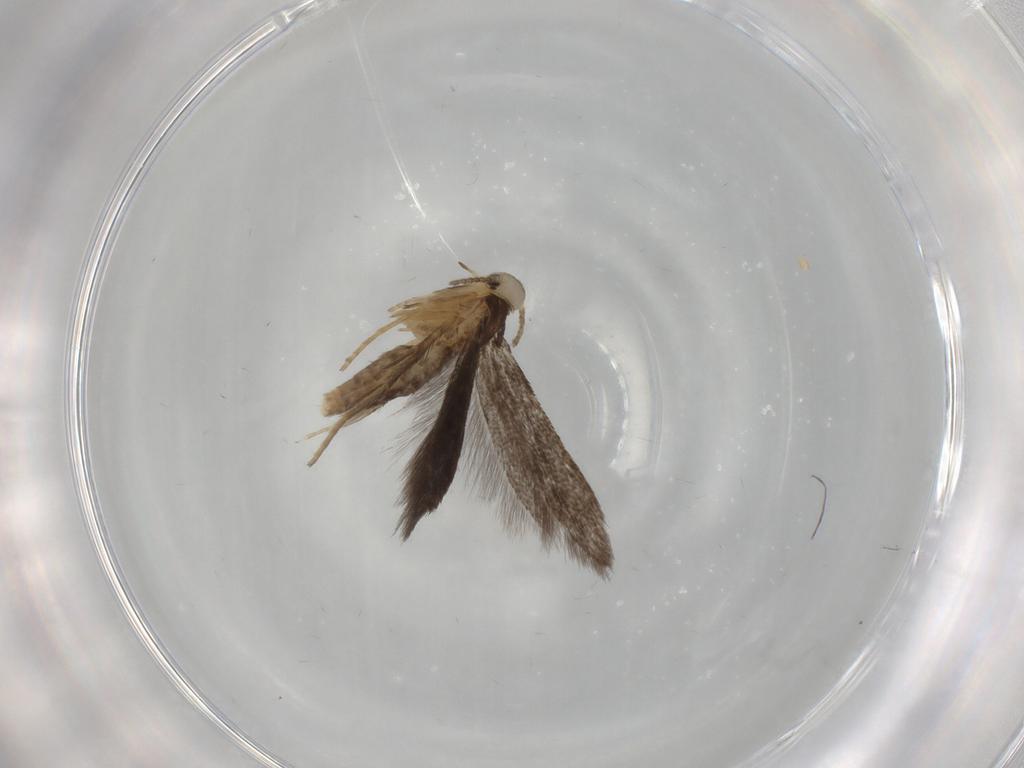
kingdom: Animalia
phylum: Arthropoda
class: Insecta
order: Lepidoptera
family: Schreckensteiniidae
